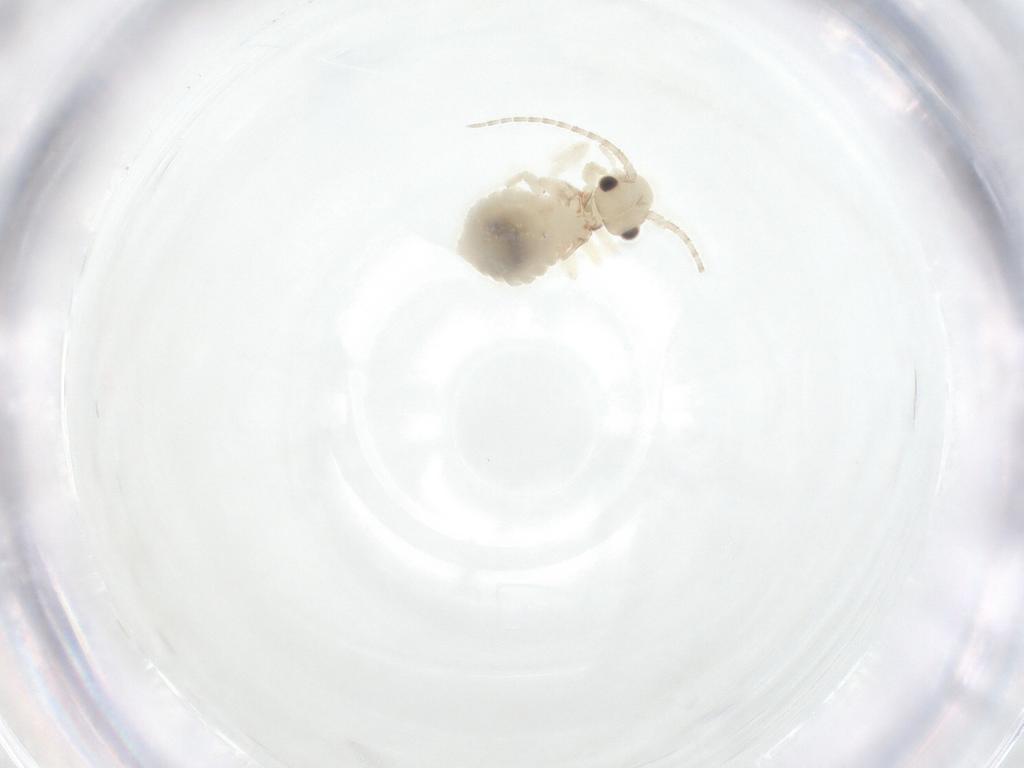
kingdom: Animalia
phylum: Arthropoda
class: Insecta
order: Psocodea
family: Amphipsocidae
